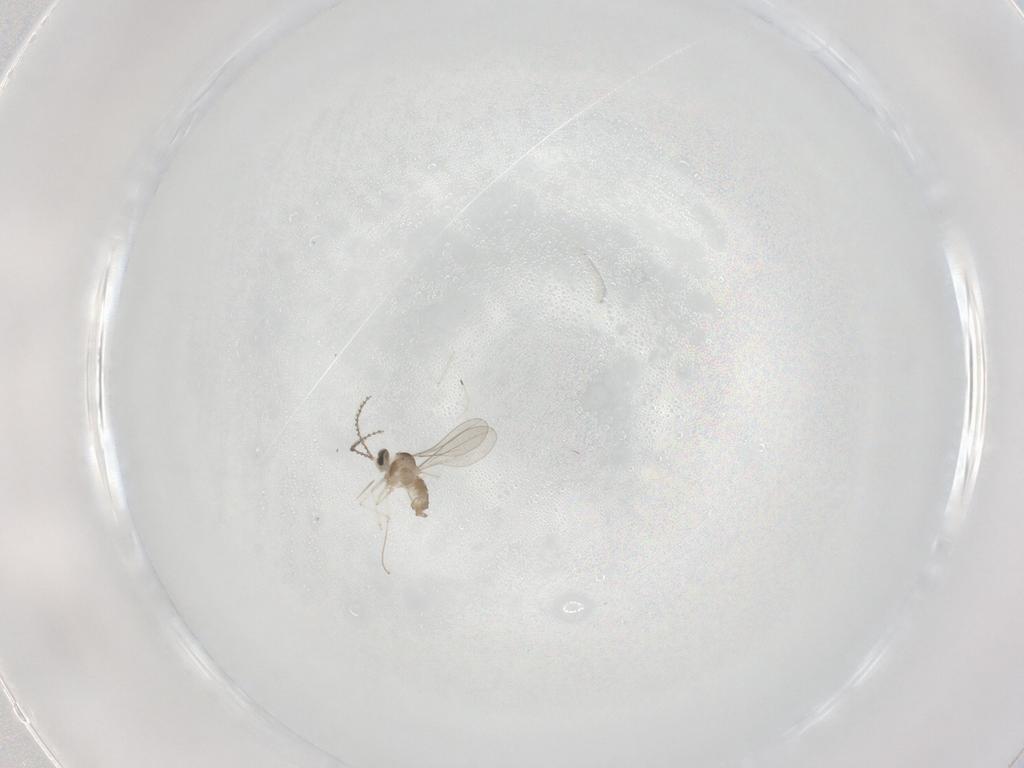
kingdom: Animalia
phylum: Arthropoda
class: Insecta
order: Diptera
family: Cecidomyiidae
